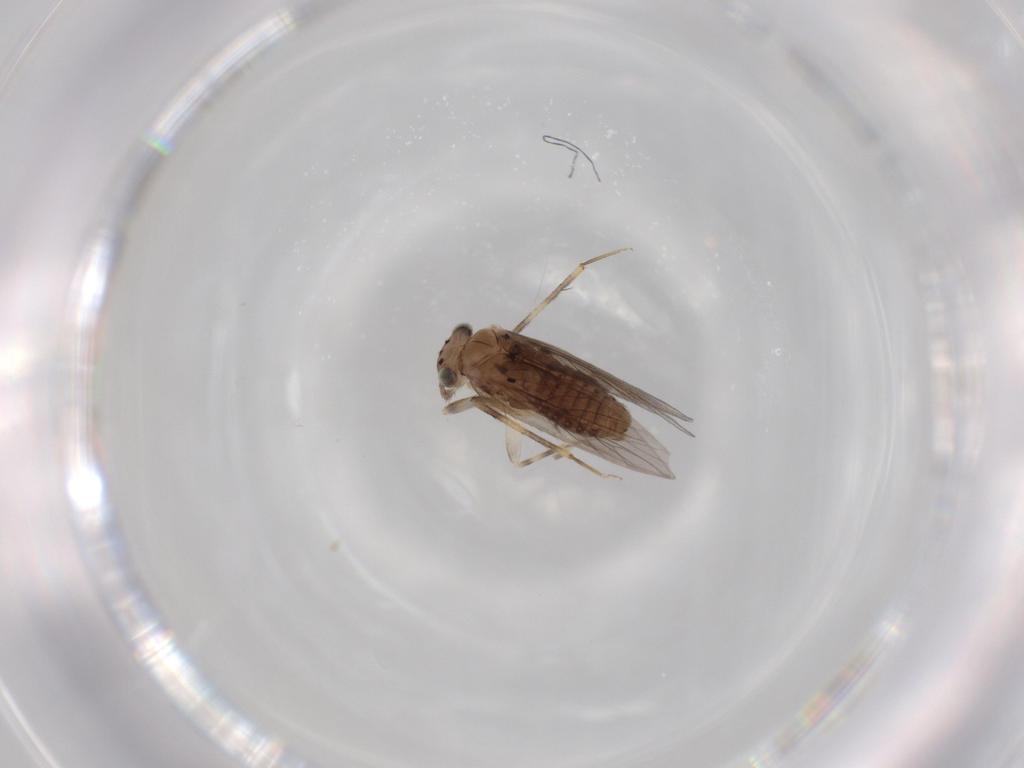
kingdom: Animalia
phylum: Arthropoda
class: Insecta
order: Psocodea
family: Lepidopsocidae
